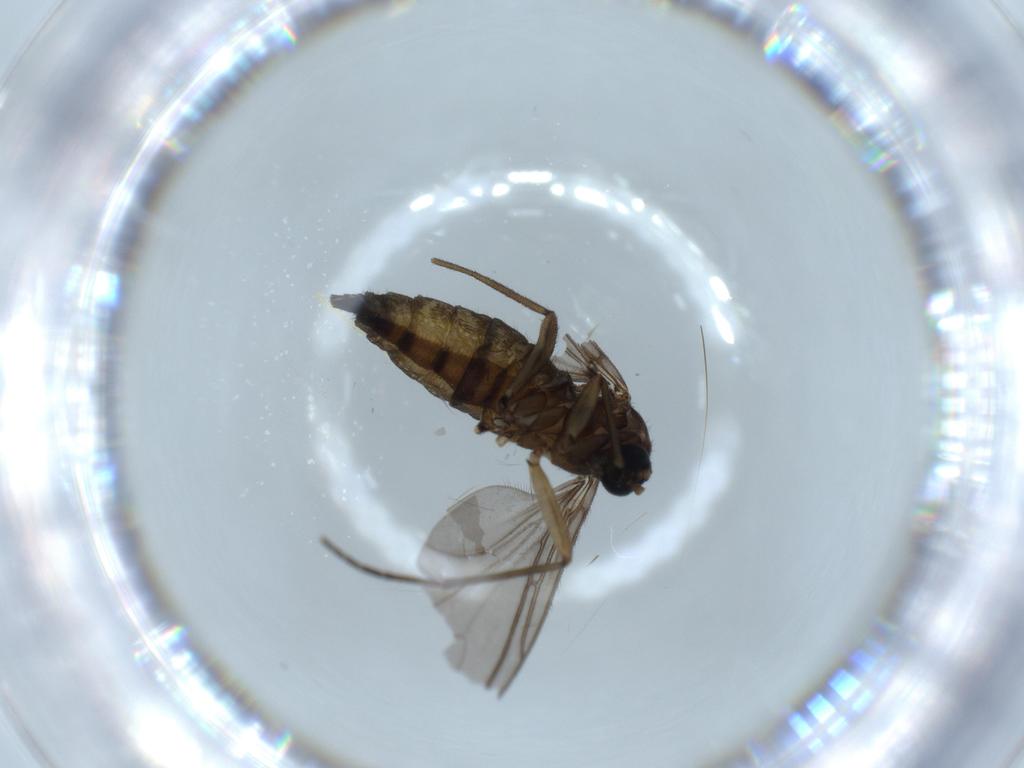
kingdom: Animalia
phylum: Arthropoda
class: Insecta
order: Diptera
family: Sciaridae
